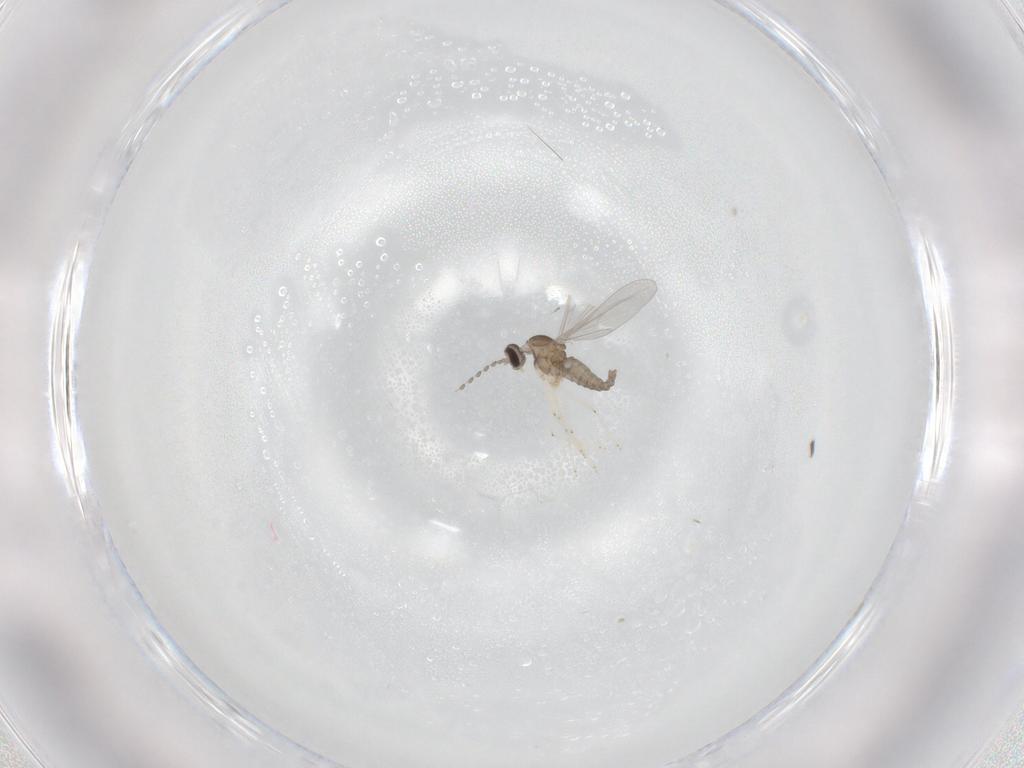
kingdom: Animalia
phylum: Arthropoda
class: Insecta
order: Diptera
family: Cecidomyiidae
